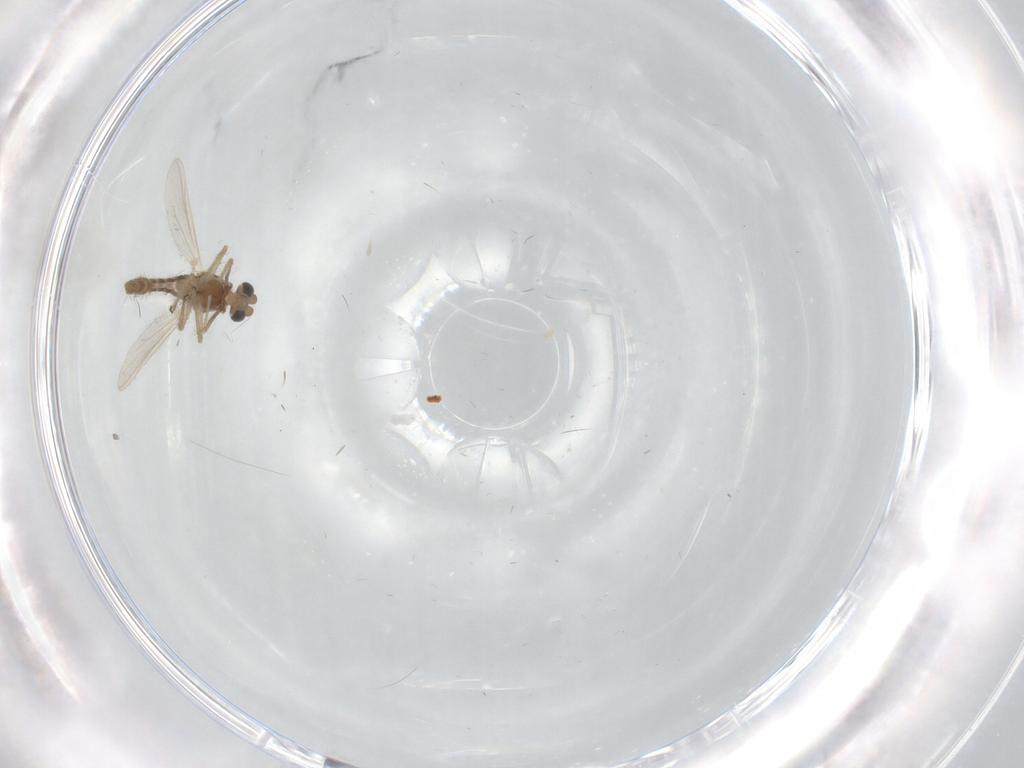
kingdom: Animalia
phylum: Arthropoda
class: Insecta
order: Diptera
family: Chironomidae
